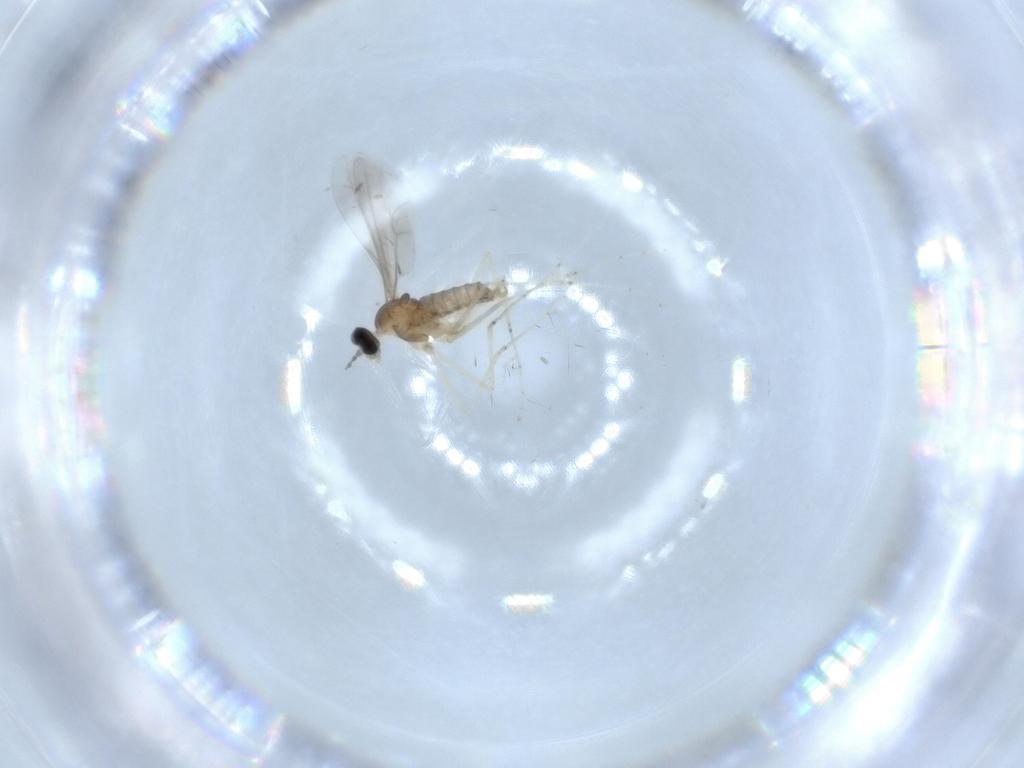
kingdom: Animalia
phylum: Arthropoda
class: Insecta
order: Diptera
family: Cecidomyiidae
